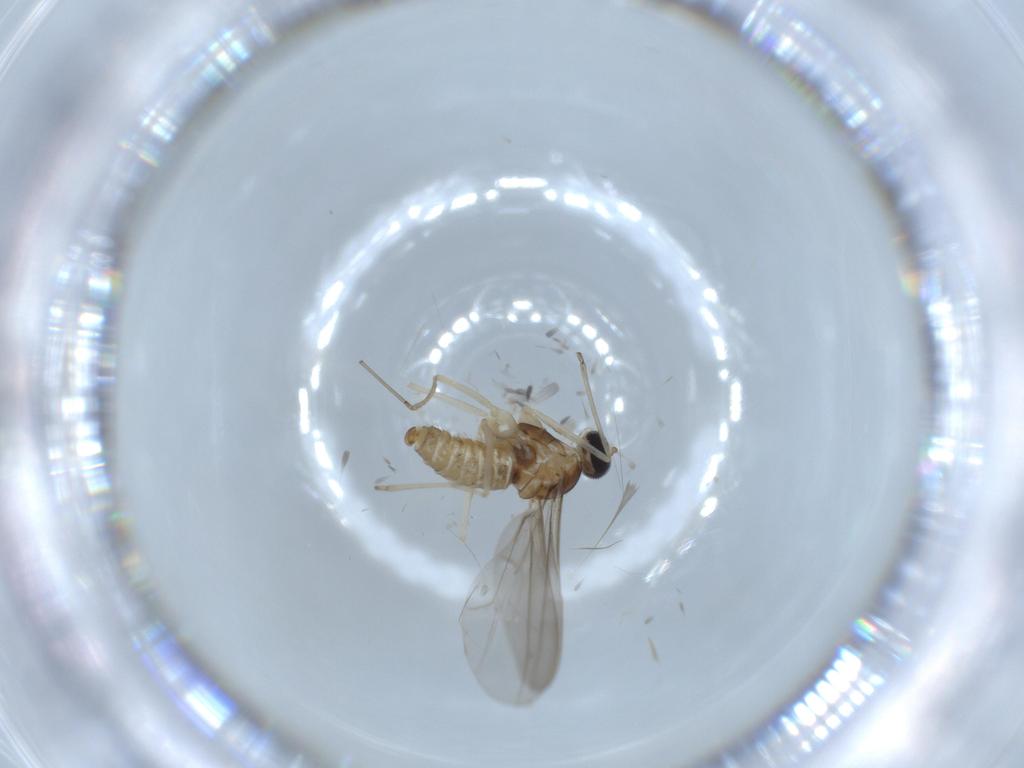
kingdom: Animalia
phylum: Arthropoda
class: Insecta
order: Diptera
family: Cecidomyiidae
